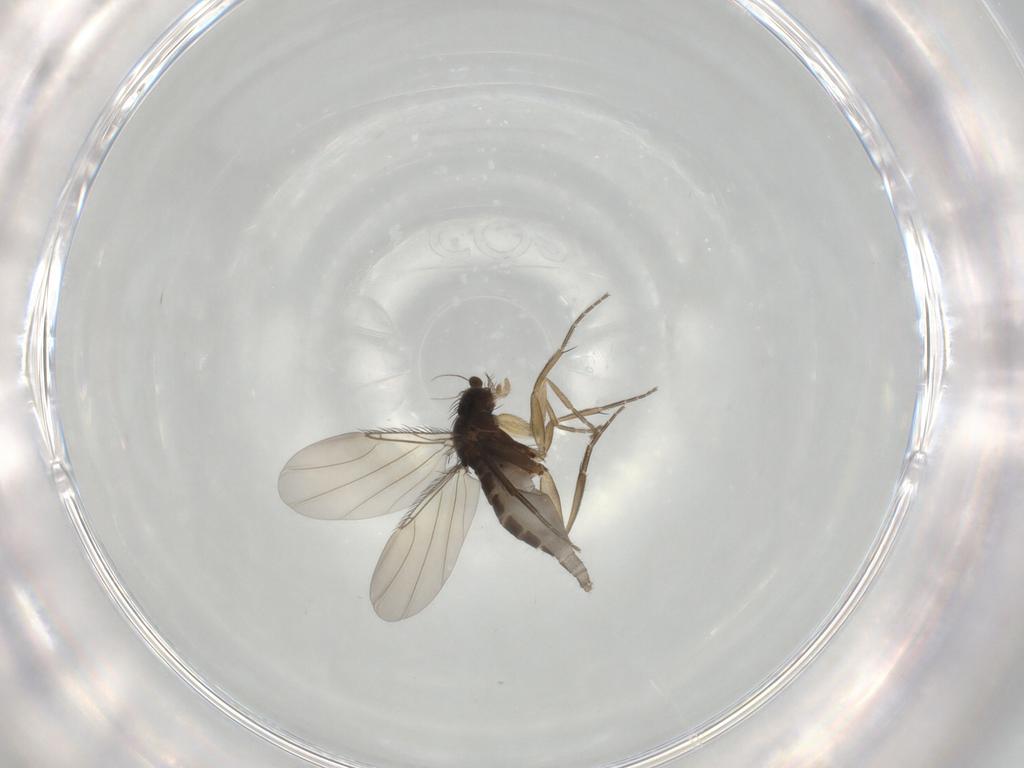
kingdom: Animalia
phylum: Arthropoda
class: Insecta
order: Diptera
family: Phoridae
